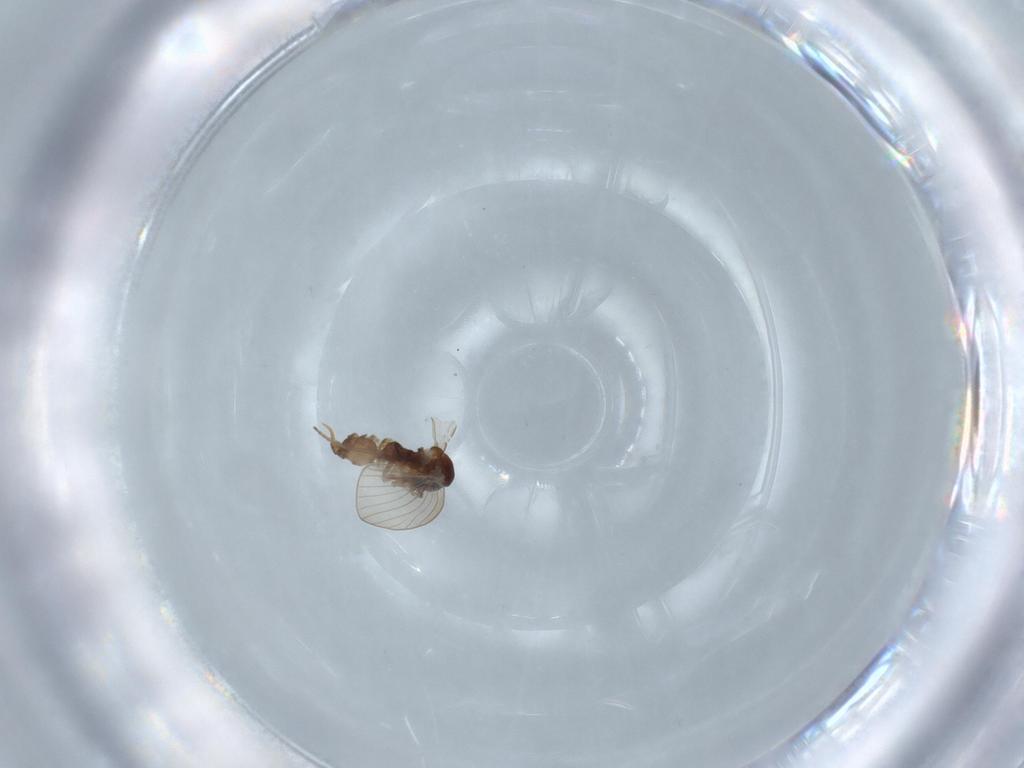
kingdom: Animalia
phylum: Arthropoda
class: Insecta
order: Diptera
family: Psychodidae
